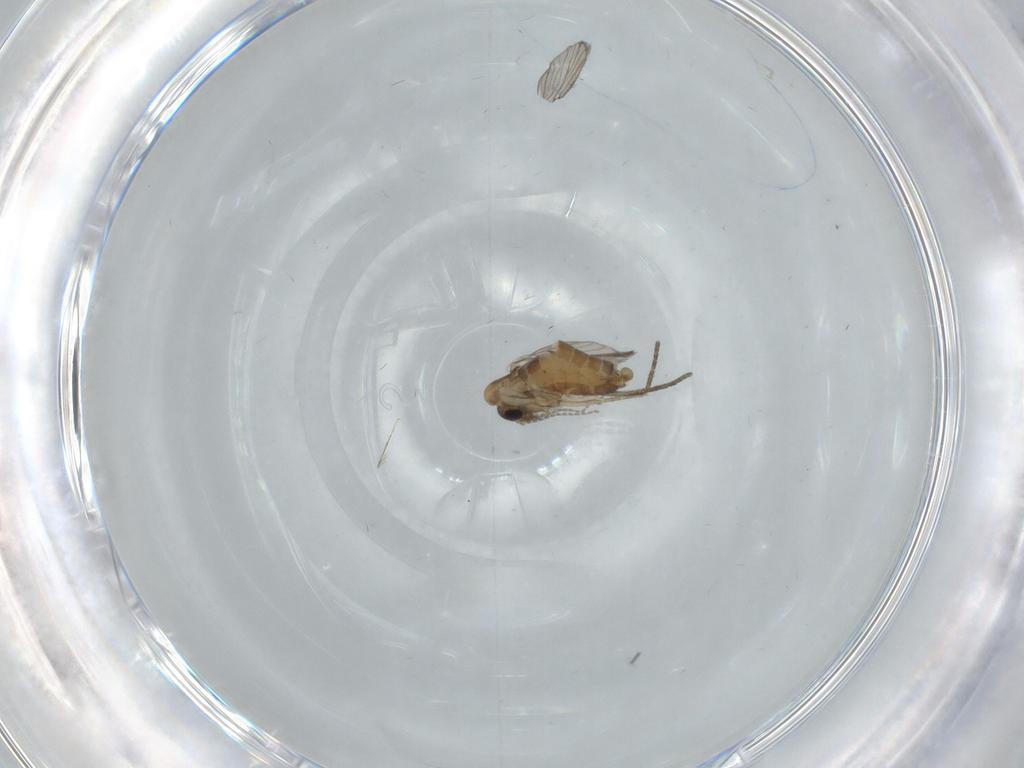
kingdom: Animalia
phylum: Arthropoda
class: Insecta
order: Diptera
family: Psychodidae
